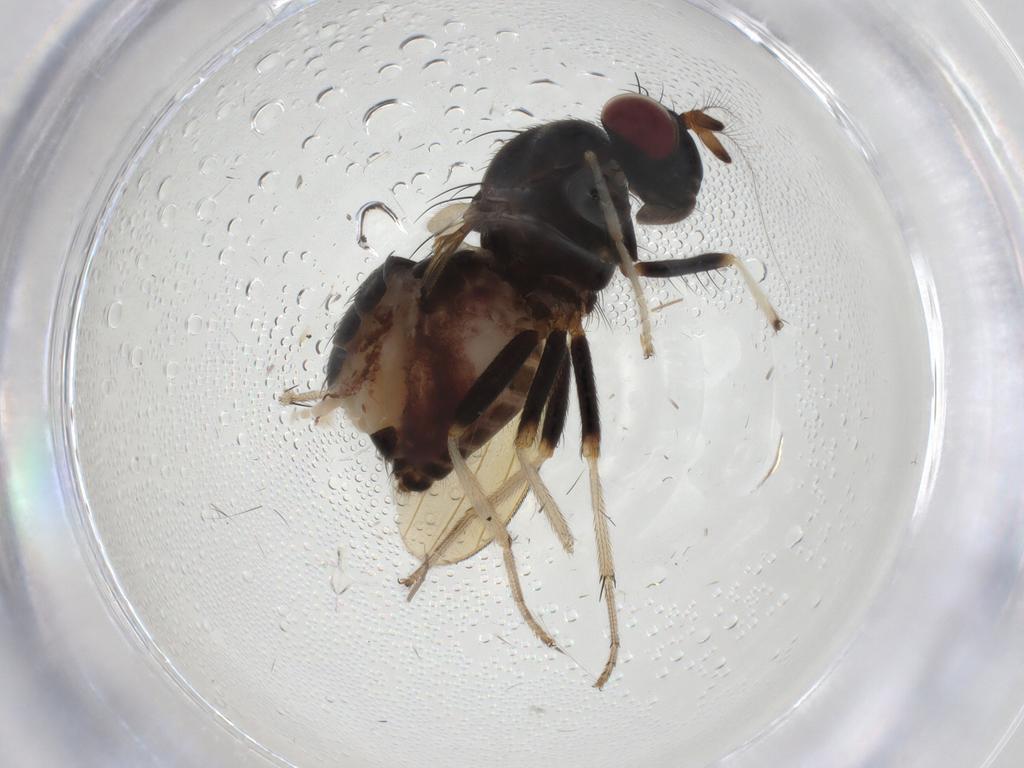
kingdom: Animalia
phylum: Arthropoda
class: Insecta
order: Diptera
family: Lauxaniidae
